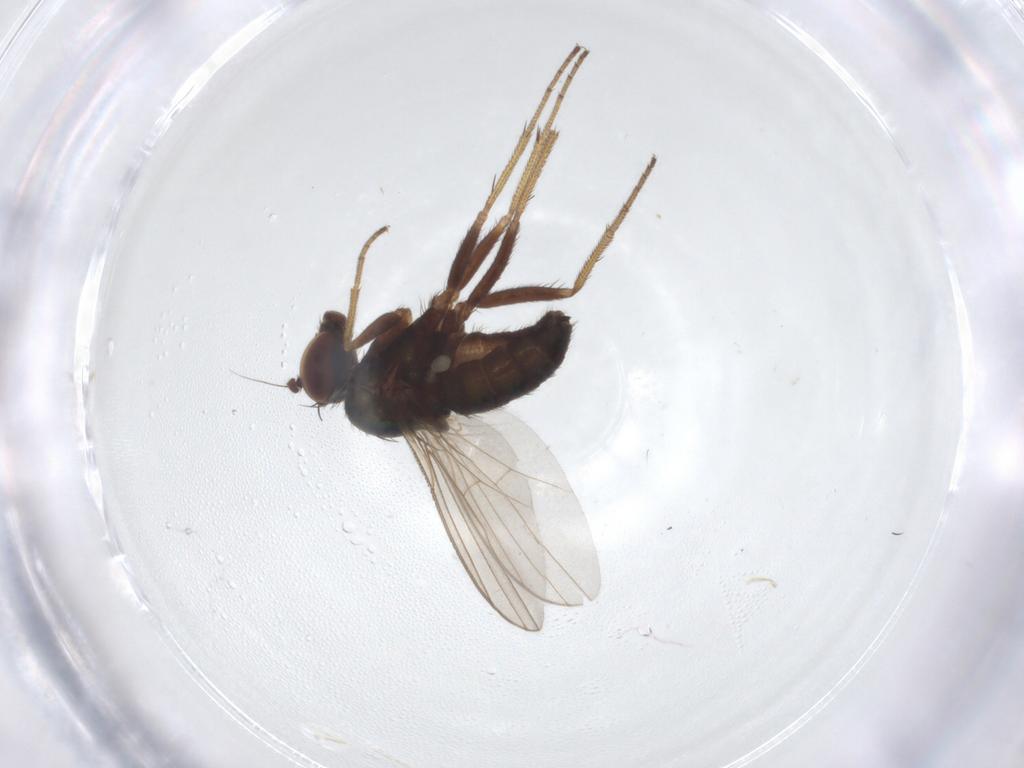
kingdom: Animalia
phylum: Arthropoda
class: Insecta
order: Diptera
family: Dolichopodidae
